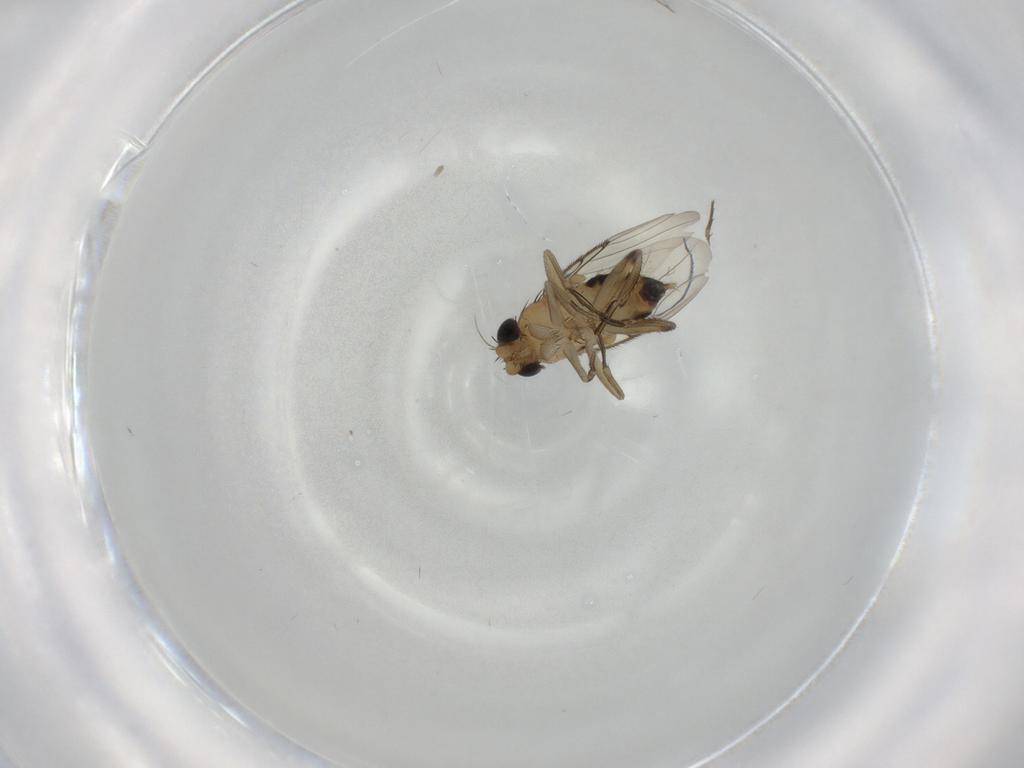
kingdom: Animalia
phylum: Arthropoda
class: Insecta
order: Diptera
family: Phoridae
